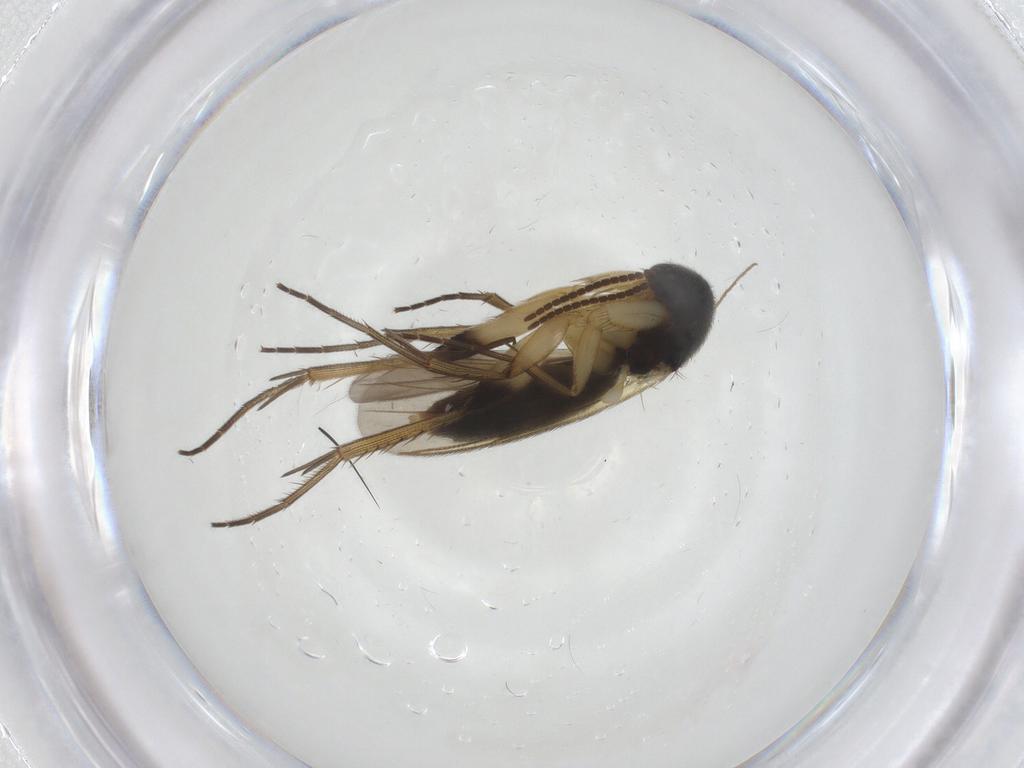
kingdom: Animalia
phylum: Arthropoda
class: Insecta
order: Diptera
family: Mycetophilidae
